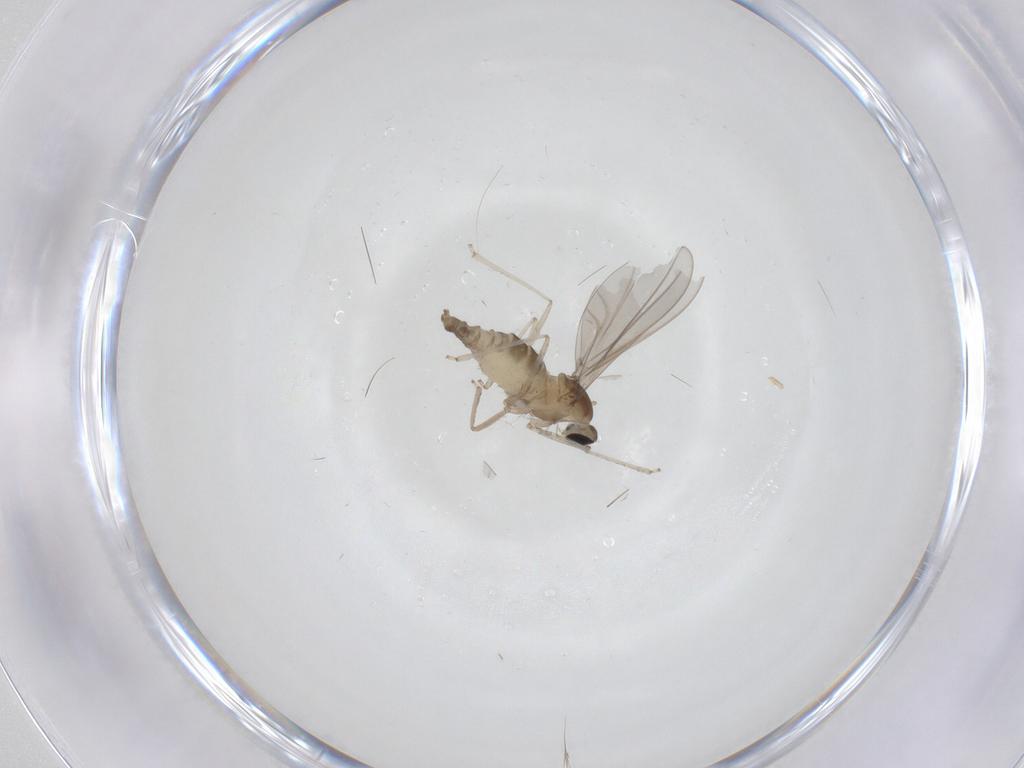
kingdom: Animalia
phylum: Arthropoda
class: Insecta
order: Diptera
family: Cecidomyiidae
